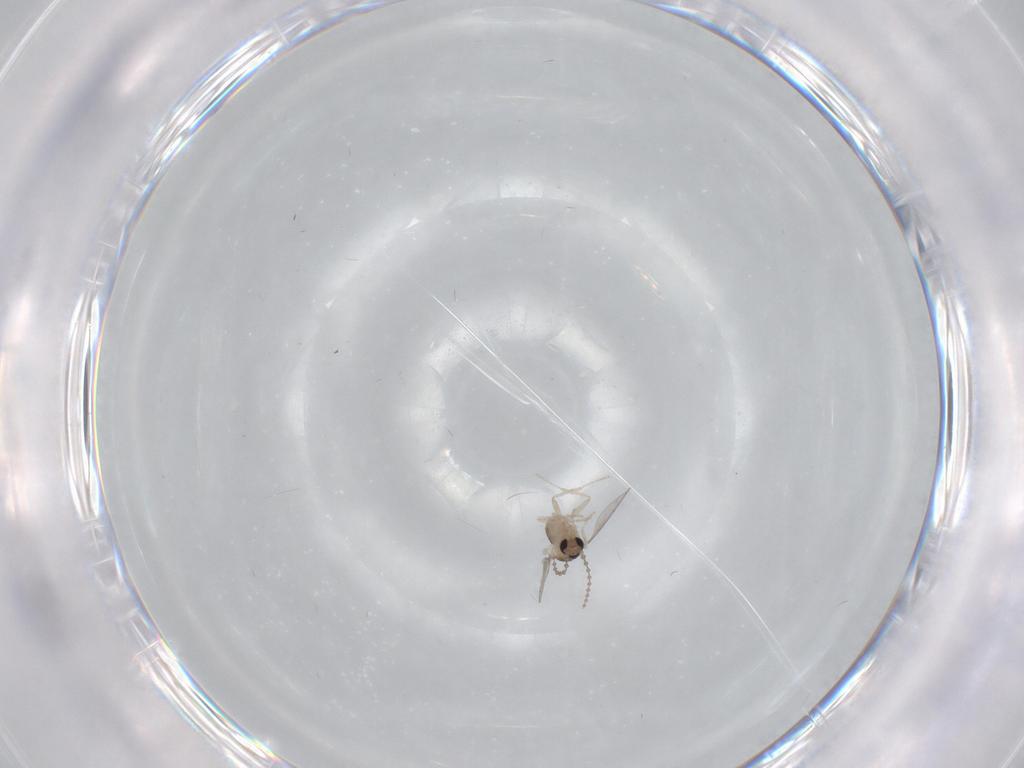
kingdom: Animalia
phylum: Arthropoda
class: Insecta
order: Diptera
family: Chironomidae
